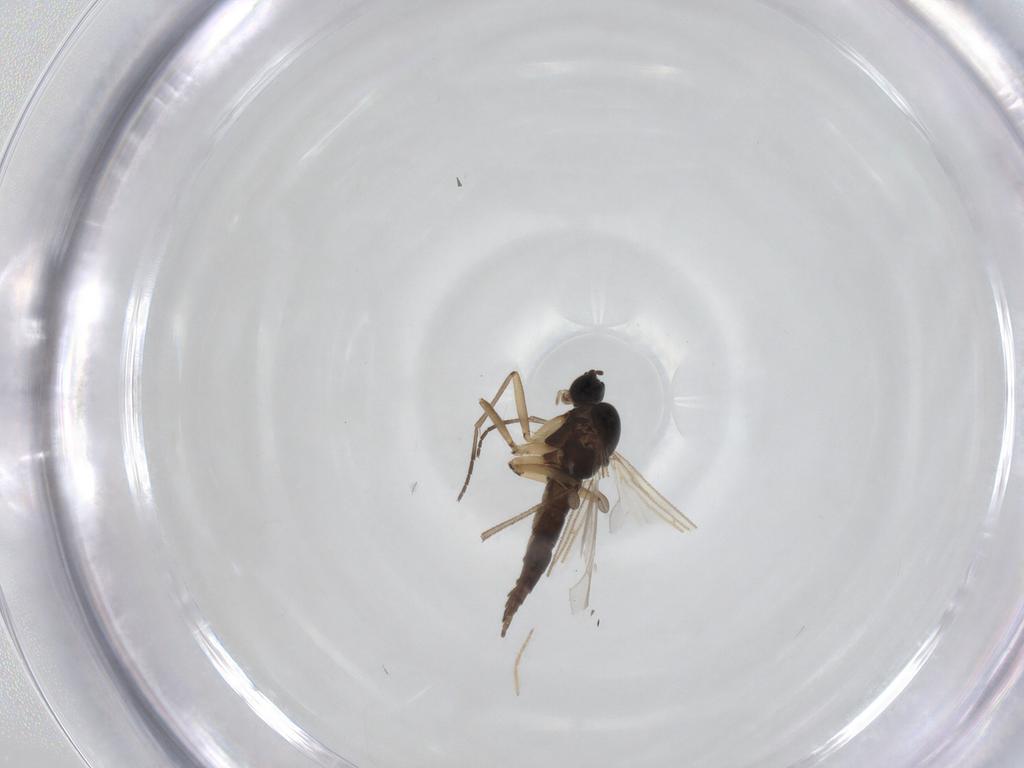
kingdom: Animalia
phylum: Arthropoda
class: Insecta
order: Diptera
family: Sciaridae
